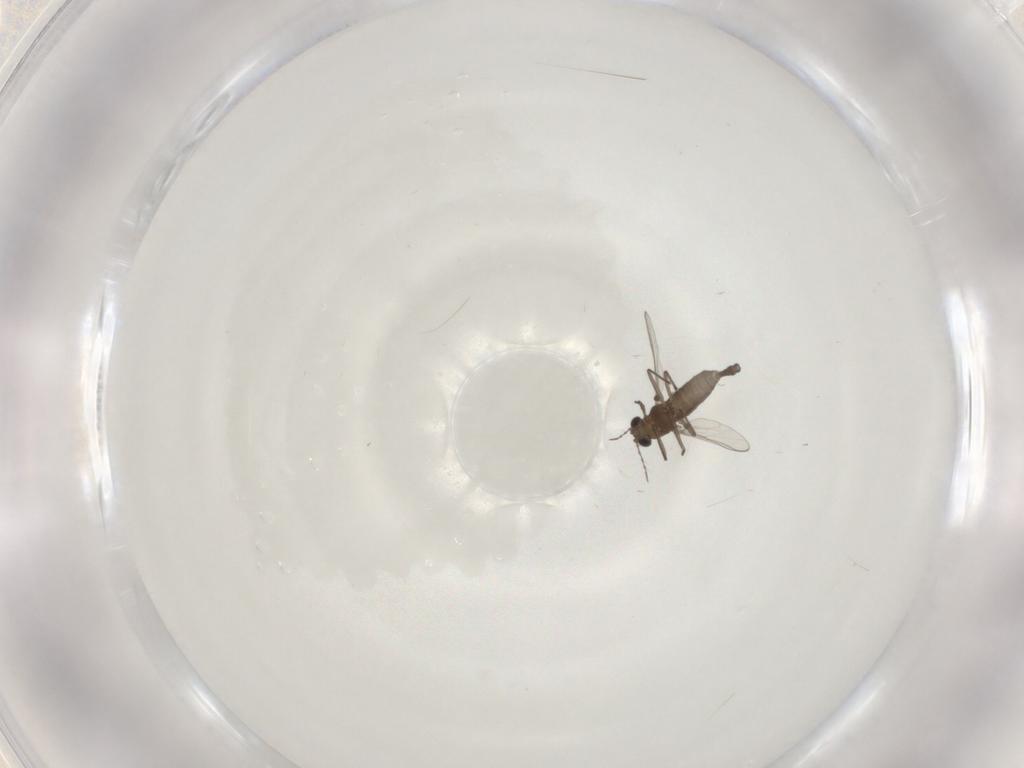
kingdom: Animalia
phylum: Arthropoda
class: Insecta
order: Diptera
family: Chironomidae
